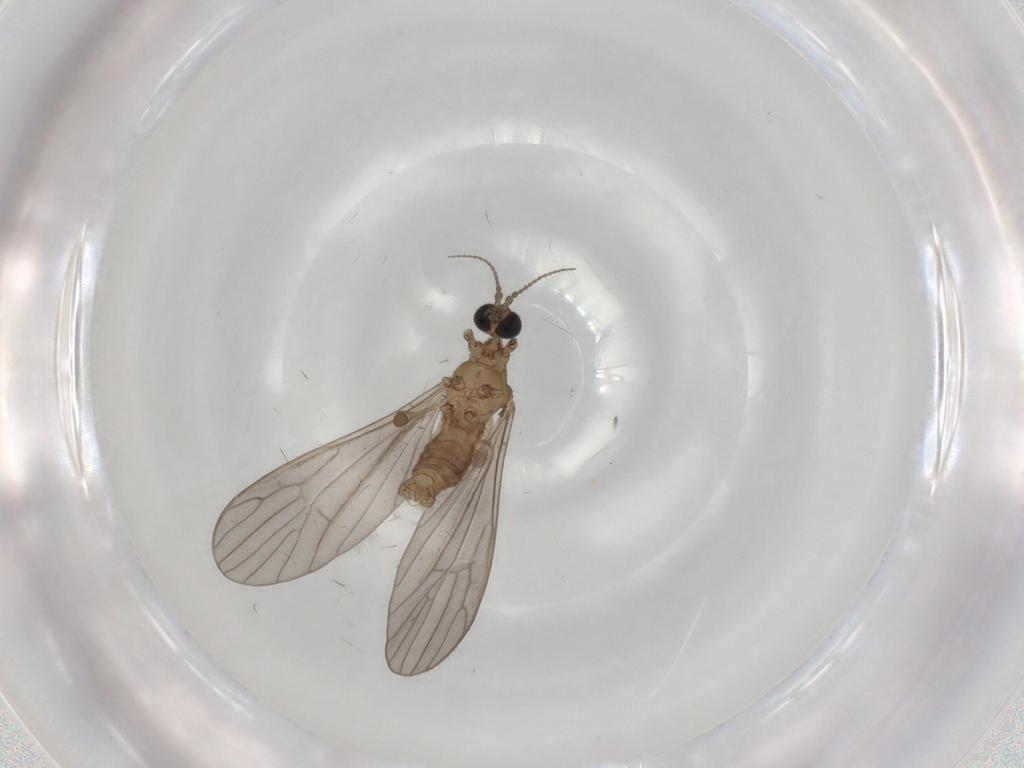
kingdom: Animalia
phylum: Arthropoda
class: Insecta
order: Diptera
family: Limoniidae
